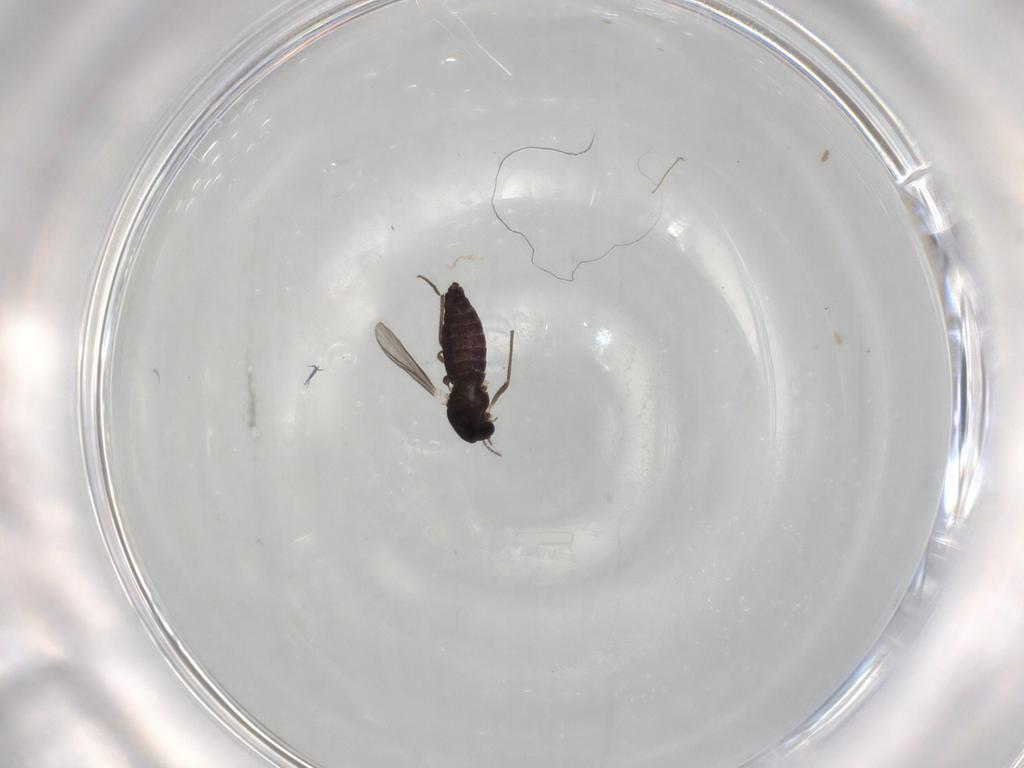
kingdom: Animalia
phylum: Arthropoda
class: Insecta
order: Diptera
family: Chironomidae
